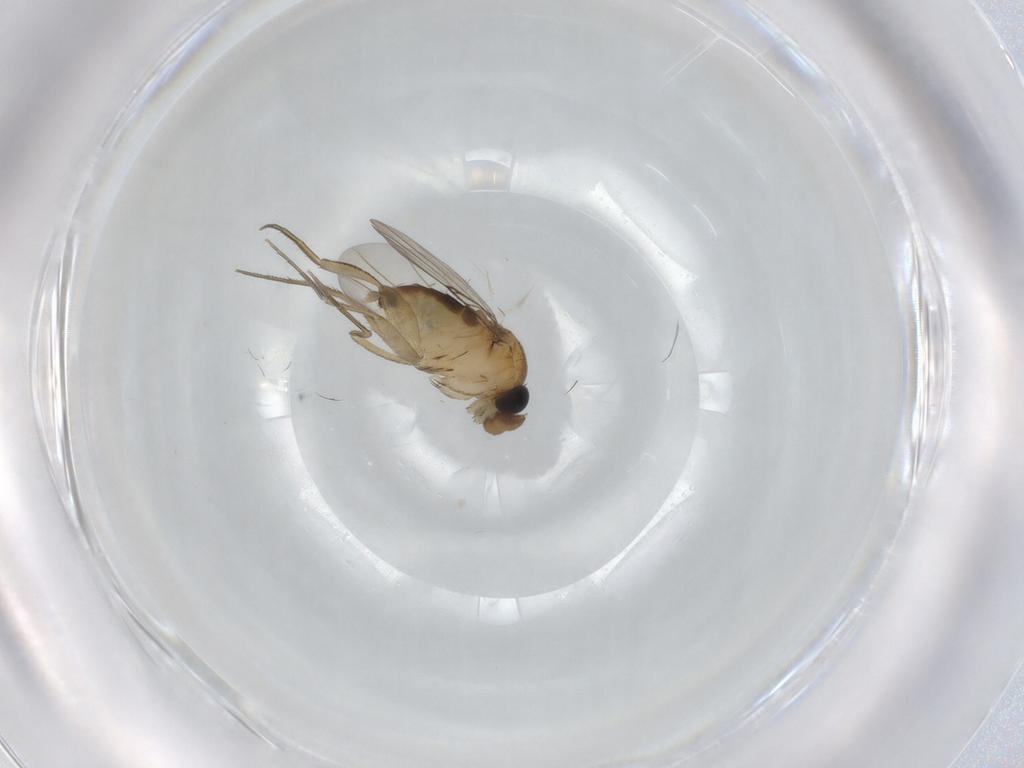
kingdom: Animalia
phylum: Arthropoda
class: Insecta
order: Diptera
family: Phoridae
